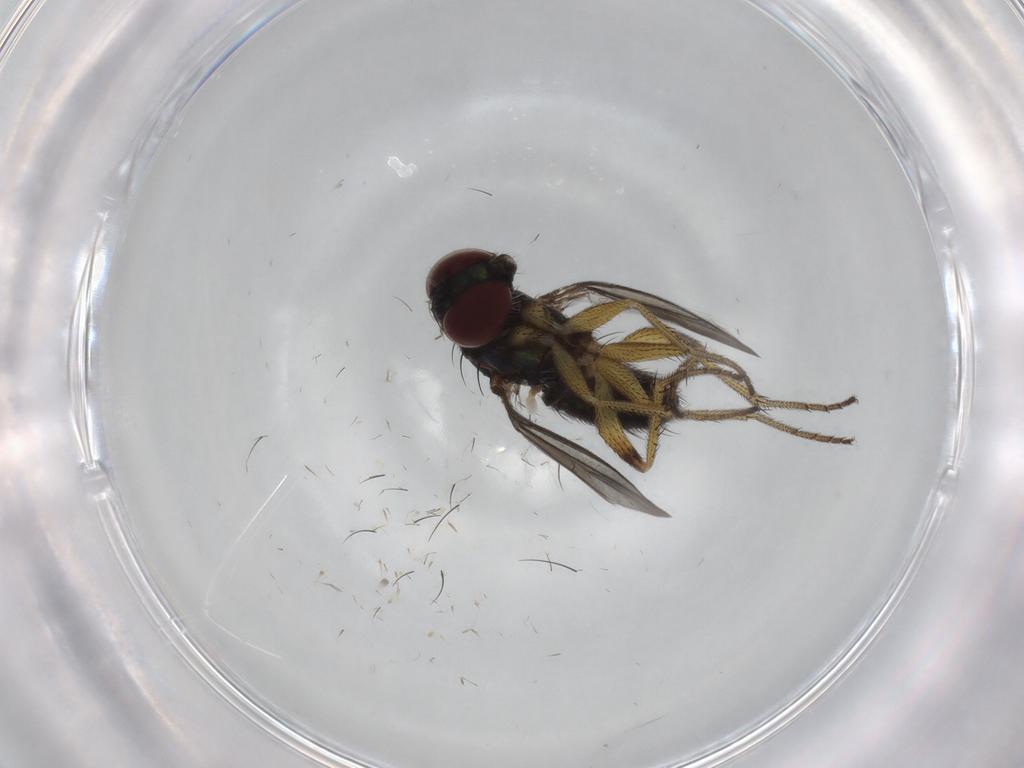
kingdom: Animalia
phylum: Arthropoda
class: Insecta
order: Diptera
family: Dolichopodidae
